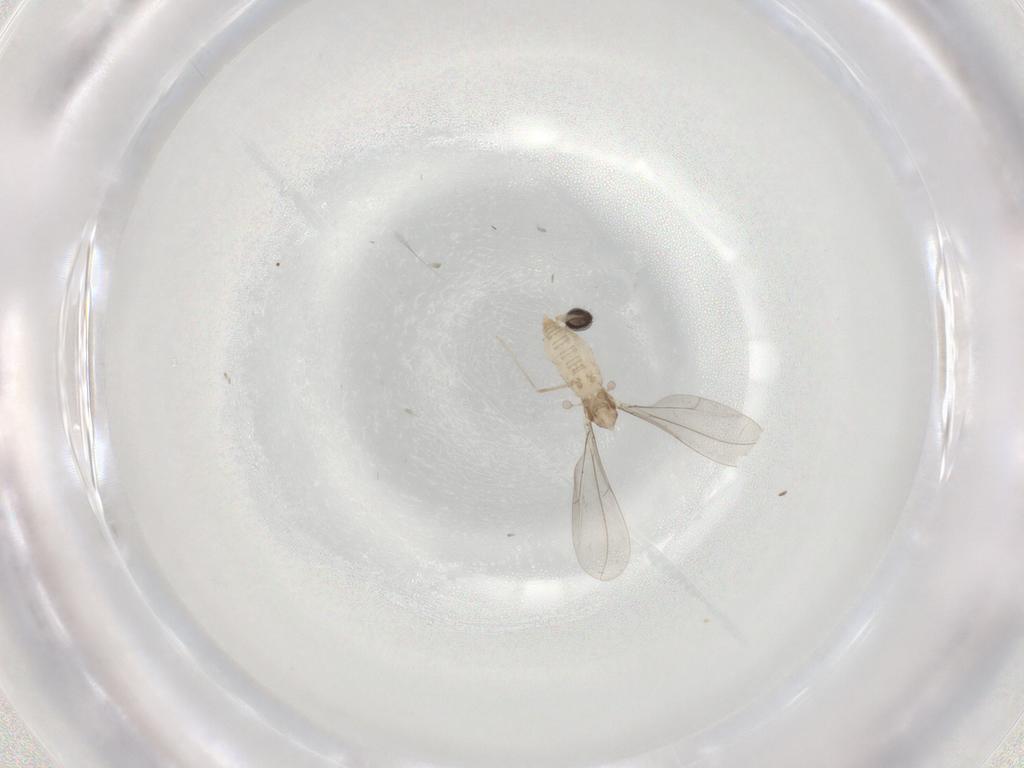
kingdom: Animalia
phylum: Arthropoda
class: Insecta
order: Diptera
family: Cecidomyiidae
